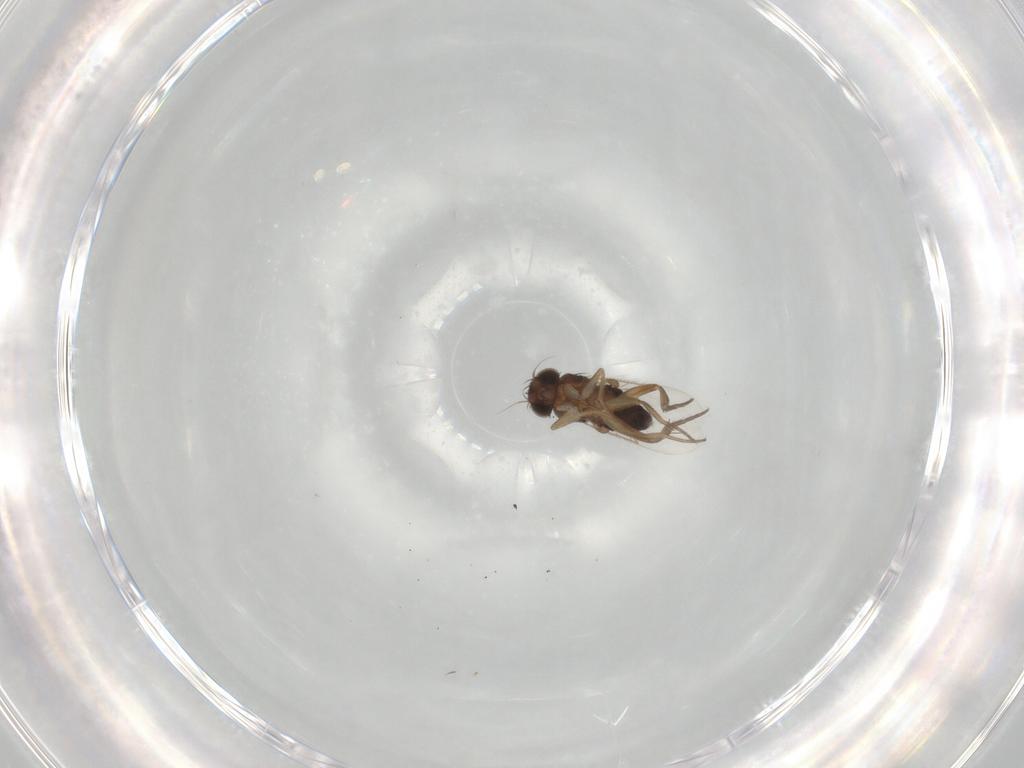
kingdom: Animalia
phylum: Arthropoda
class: Insecta
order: Diptera
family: Phoridae
